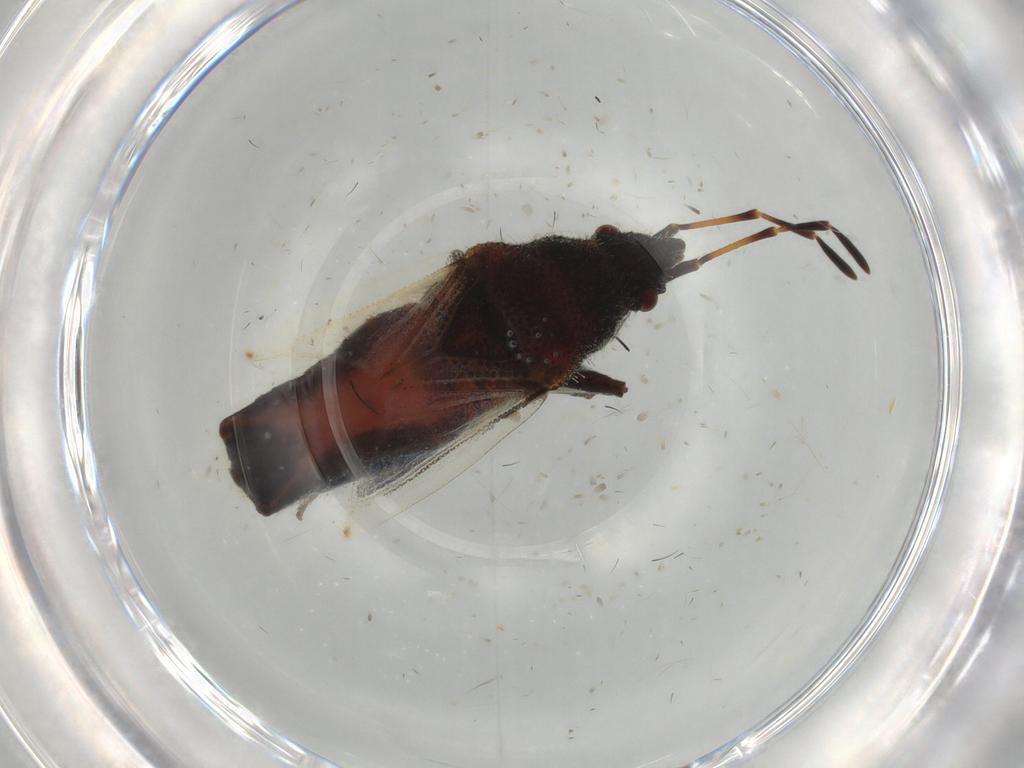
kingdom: Animalia
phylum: Arthropoda
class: Insecta
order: Hemiptera
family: Oxycarenidae
